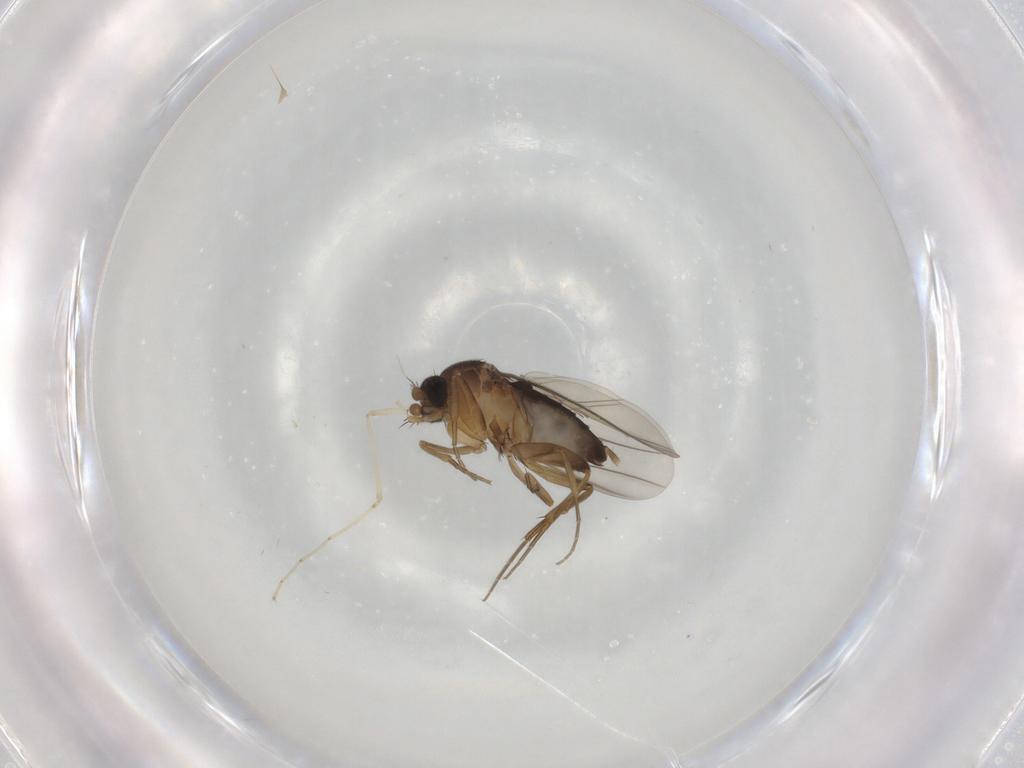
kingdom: Animalia
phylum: Arthropoda
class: Insecta
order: Diptera
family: Phoridae
